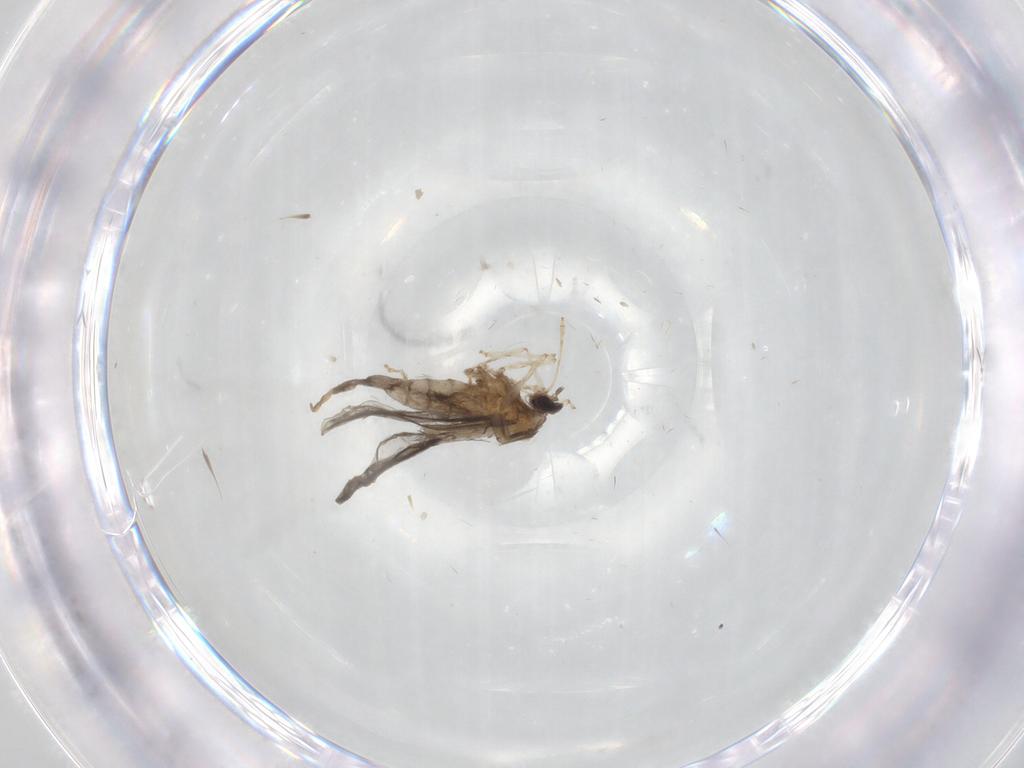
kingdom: Animalia
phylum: Arthropoda
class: Insecta
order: Diptera
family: Chironomidae
